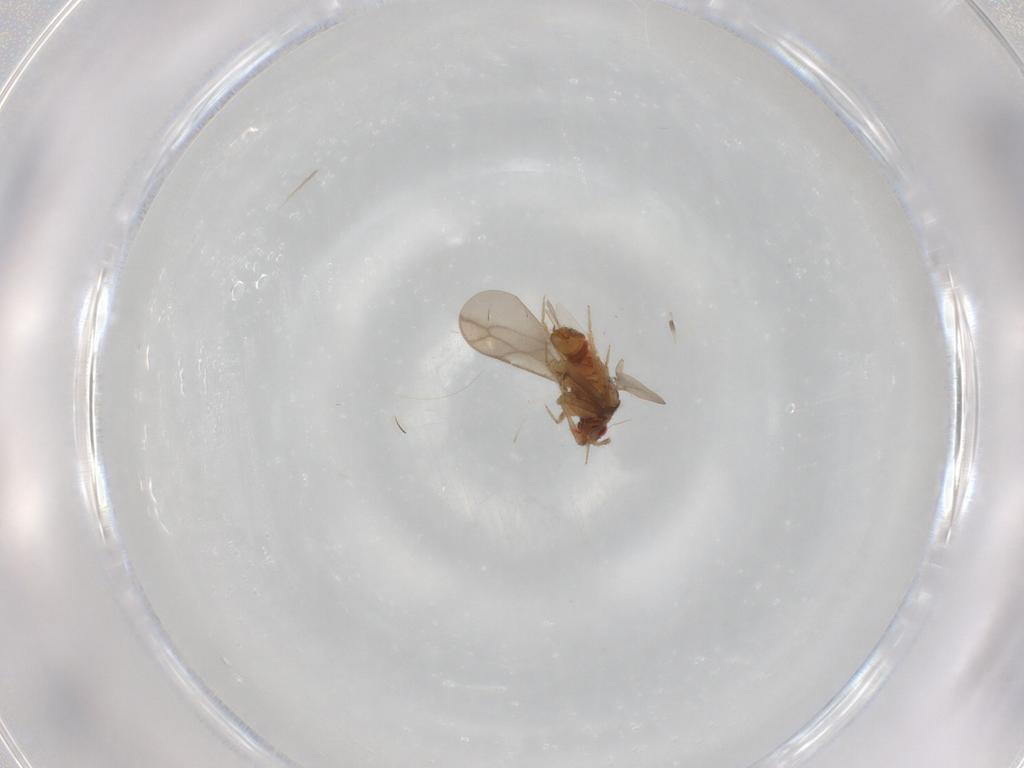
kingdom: Animalia
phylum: Arthropoda
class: Insecta
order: Hemiptera
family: Ceratocombidae
